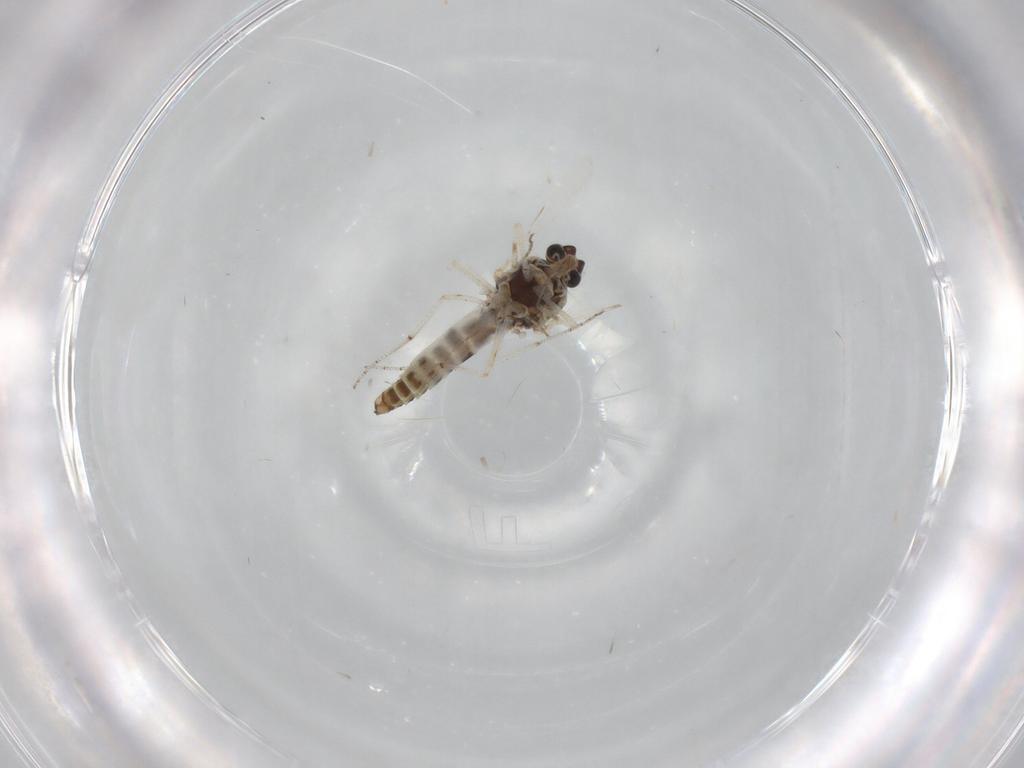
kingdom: Animalia
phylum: Arthropoda
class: Insecta
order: Diptera
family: Ceratopogonidae
